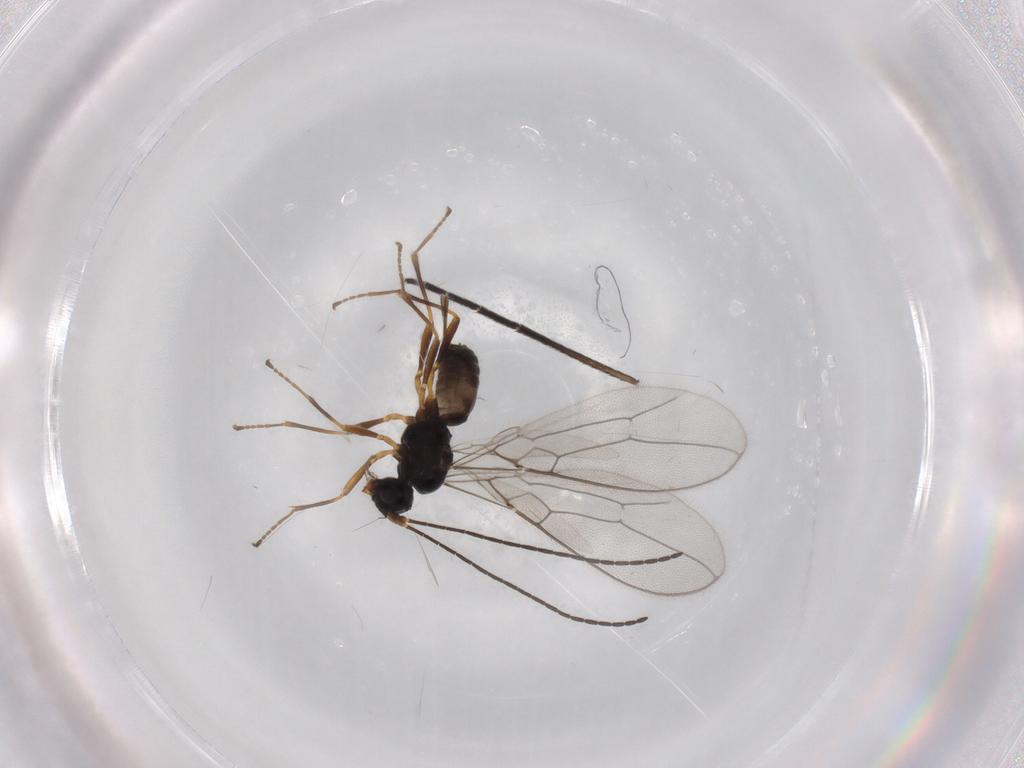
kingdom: Animalia
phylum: Arthropoda
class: Insecta
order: Hymenoptera
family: Braconidae
